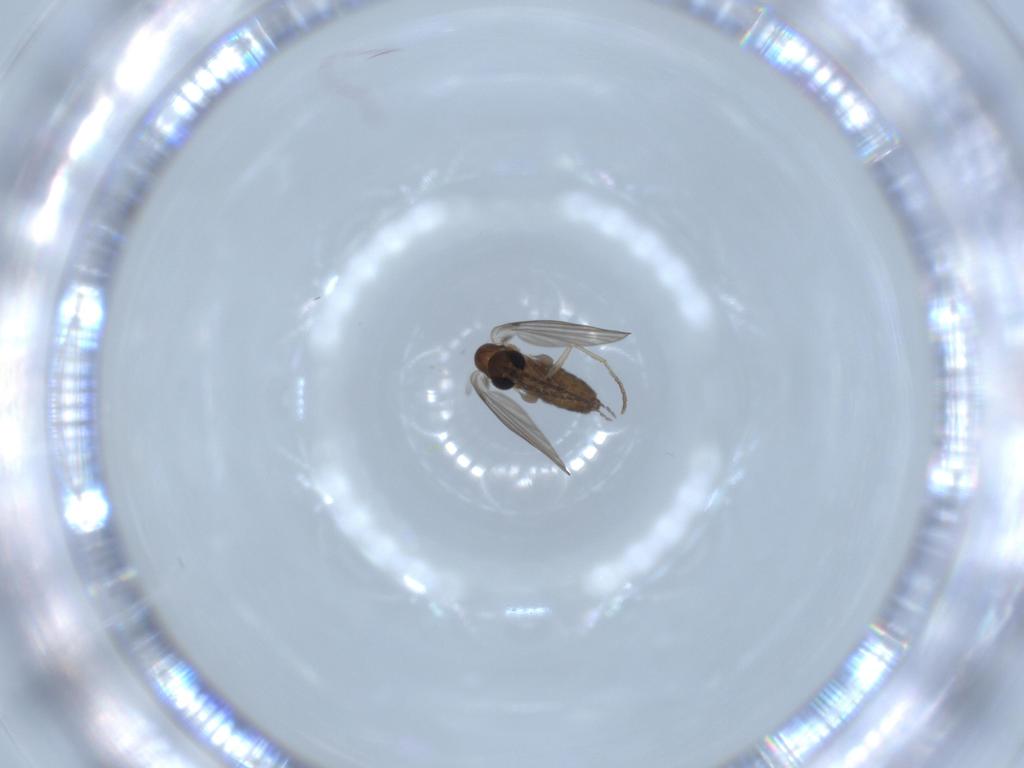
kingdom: Animalia
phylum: Arthropoda
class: Insecta
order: Diptera
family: Psychodidae
